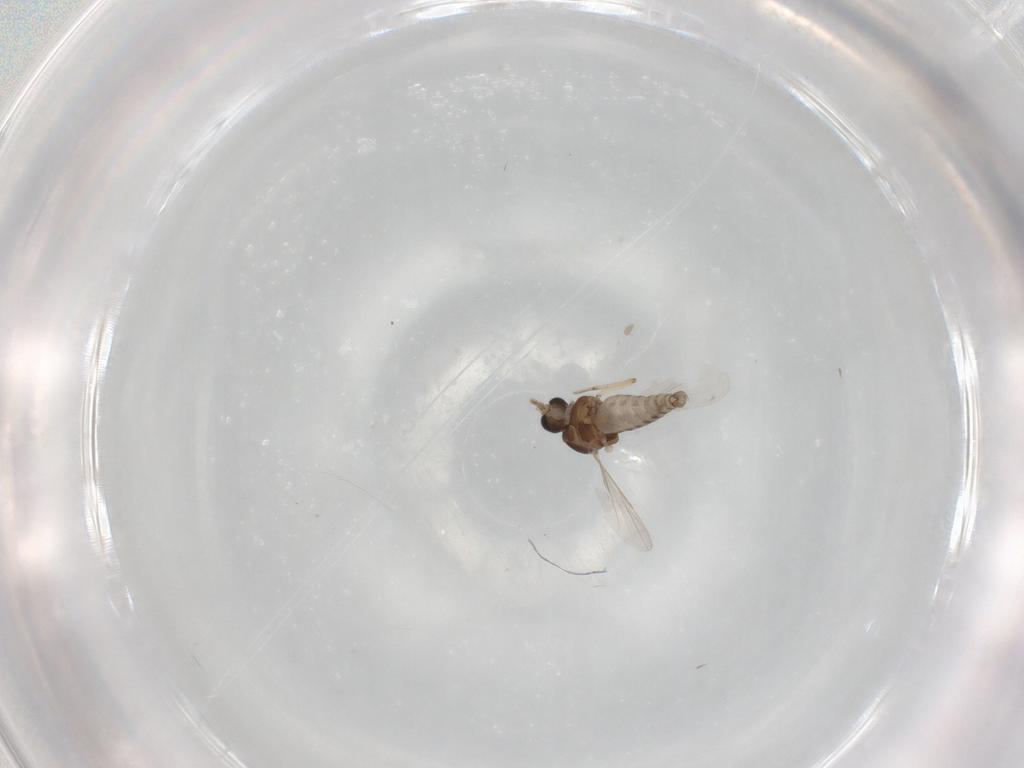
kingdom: Animalia
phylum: Arthropoda
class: Insecta
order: Diptera
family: Ceratopogonidae
